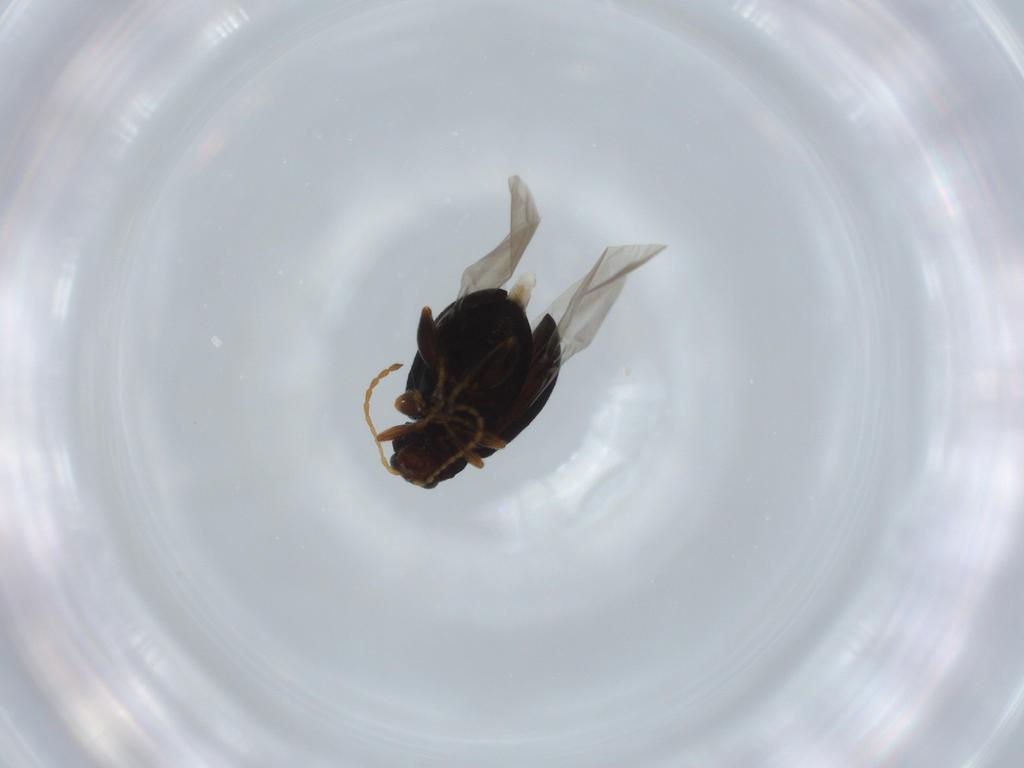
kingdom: Animalia
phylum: Arthropoda
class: Insecta
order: Coleoptera
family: Chrysomelidae
